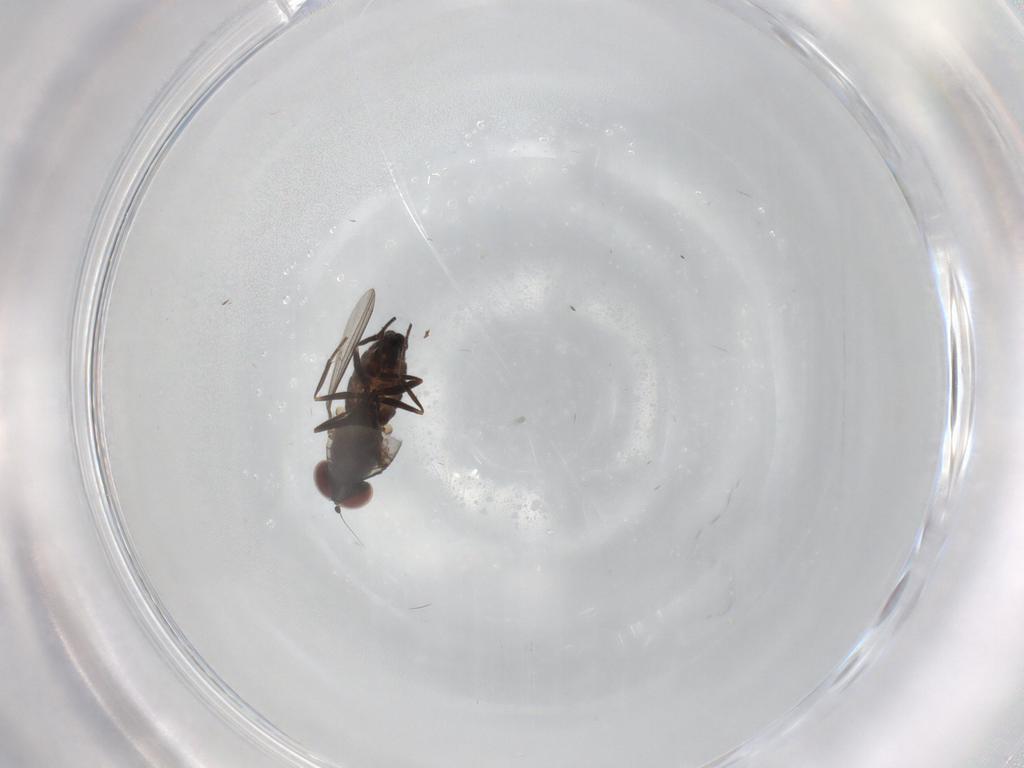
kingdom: Animalia
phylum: Arthropoda
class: Insecta
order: Diptera
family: Dolichopodidae
